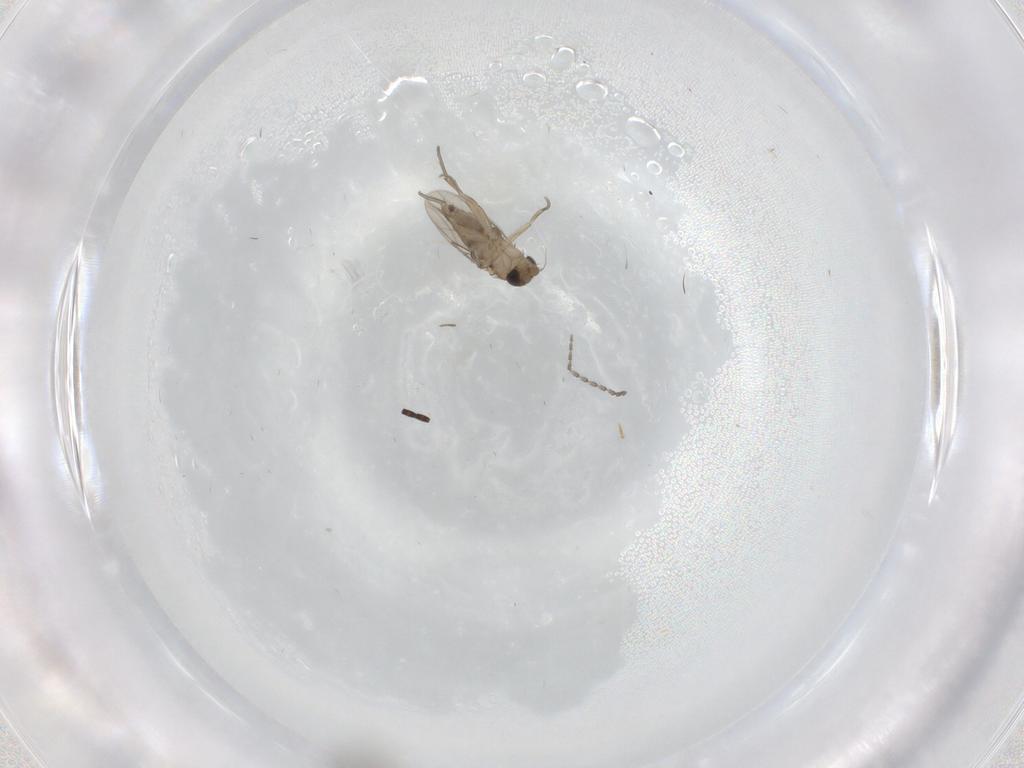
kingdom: Animalia
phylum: Arthropoda
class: Insecta
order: Diptera
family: Phoridae
